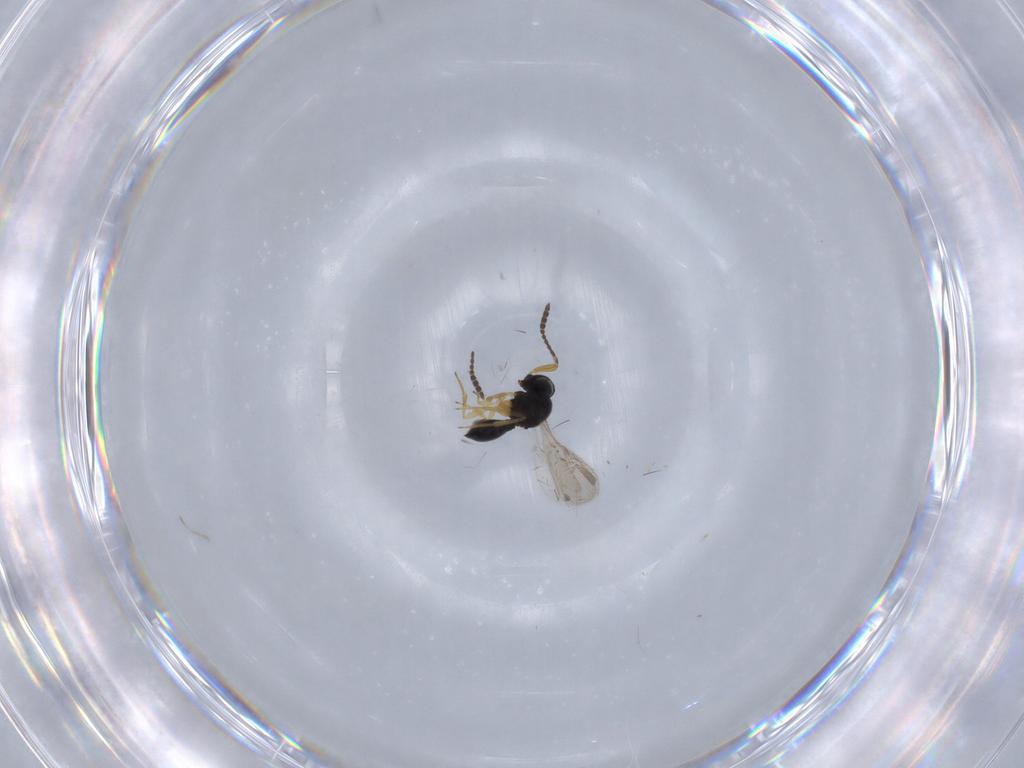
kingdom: Animalia
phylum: Arthropoda
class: Insecta
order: Hymenoptera
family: Scelionidae
